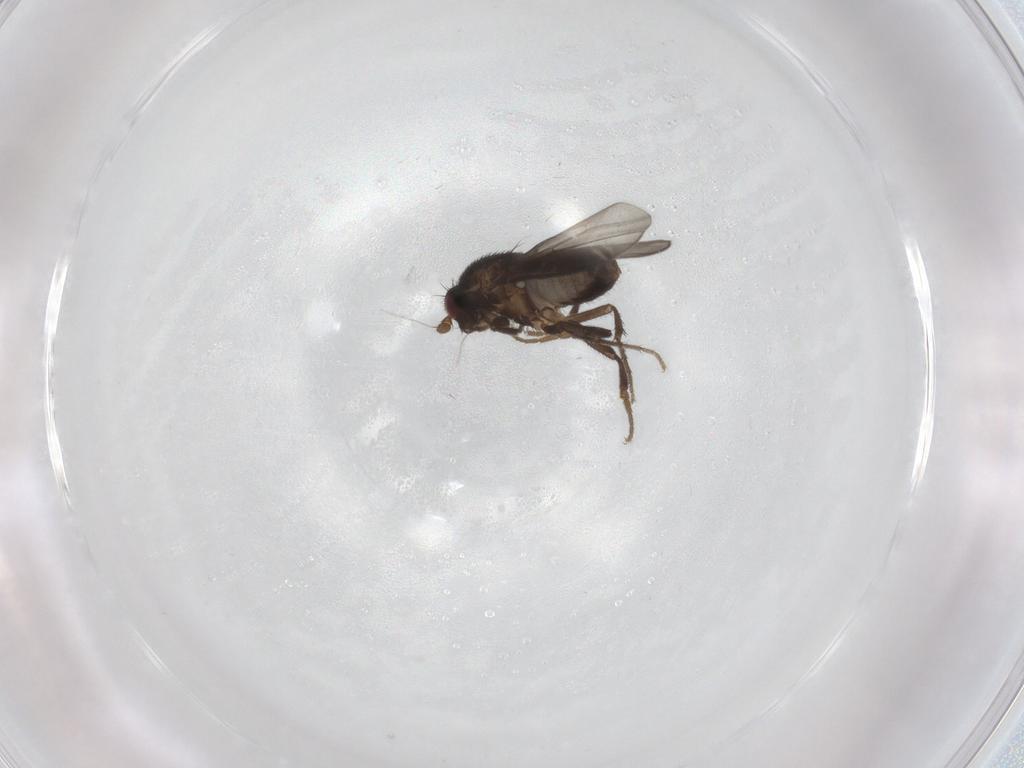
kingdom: Animalia
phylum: Arthropoda
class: Insecta
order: Diptera
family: Sphaeroceridae
